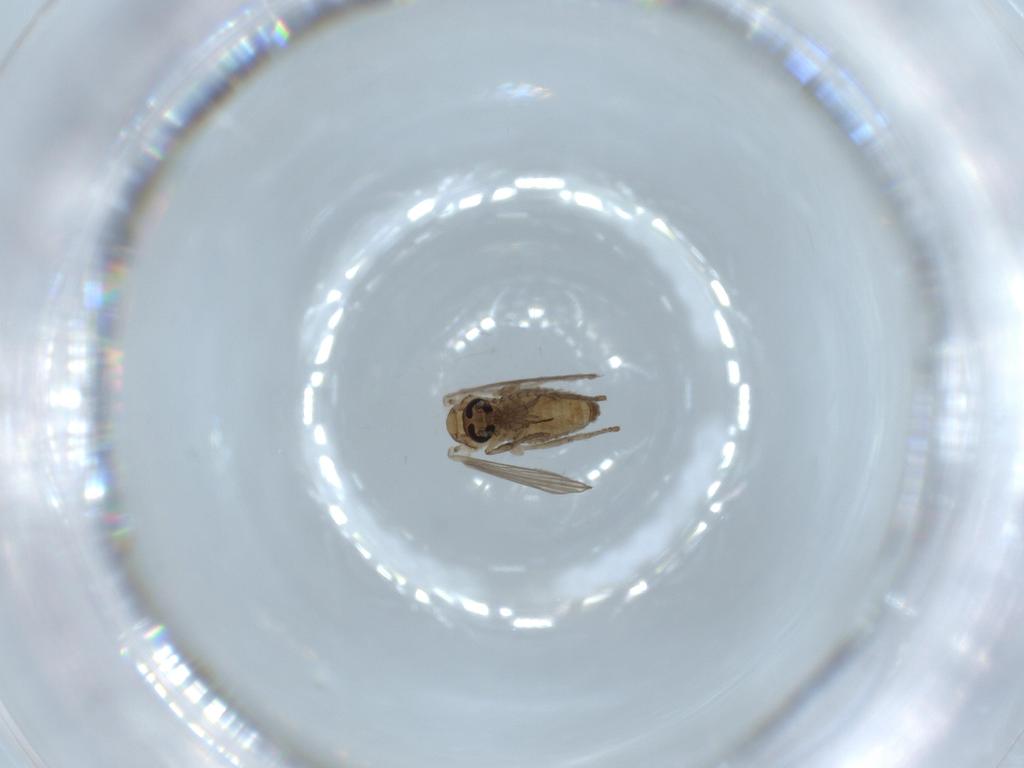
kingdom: Animalia
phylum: Arthropoda
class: Insecta
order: Diptera
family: Psychodidae
